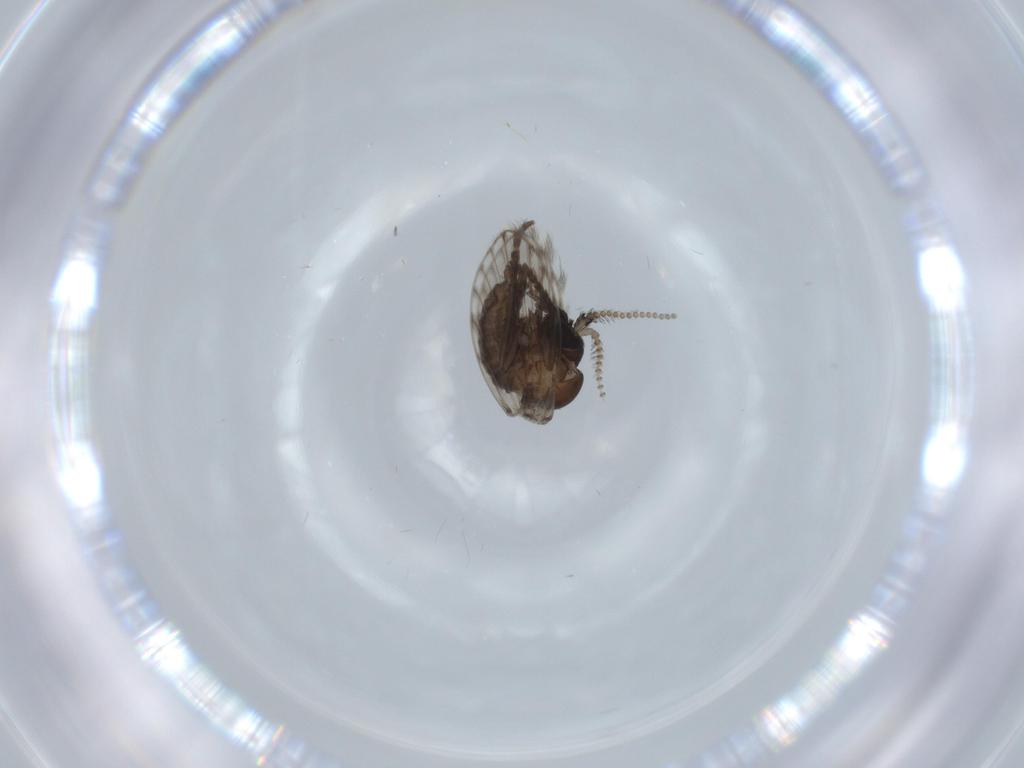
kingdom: Animalia
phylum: Arthropoda
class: Insecta
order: Diptera
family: Psychodidae
